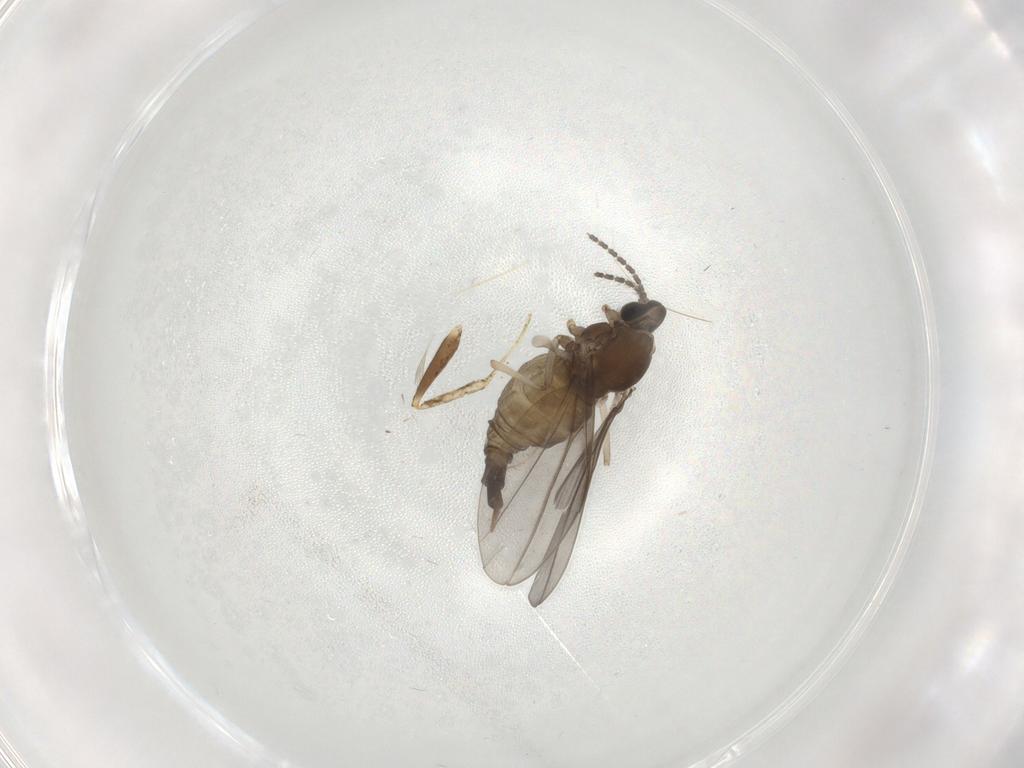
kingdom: Animalia
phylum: Arthropoda
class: Insecta
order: Diptera
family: Cecidomyiidae
